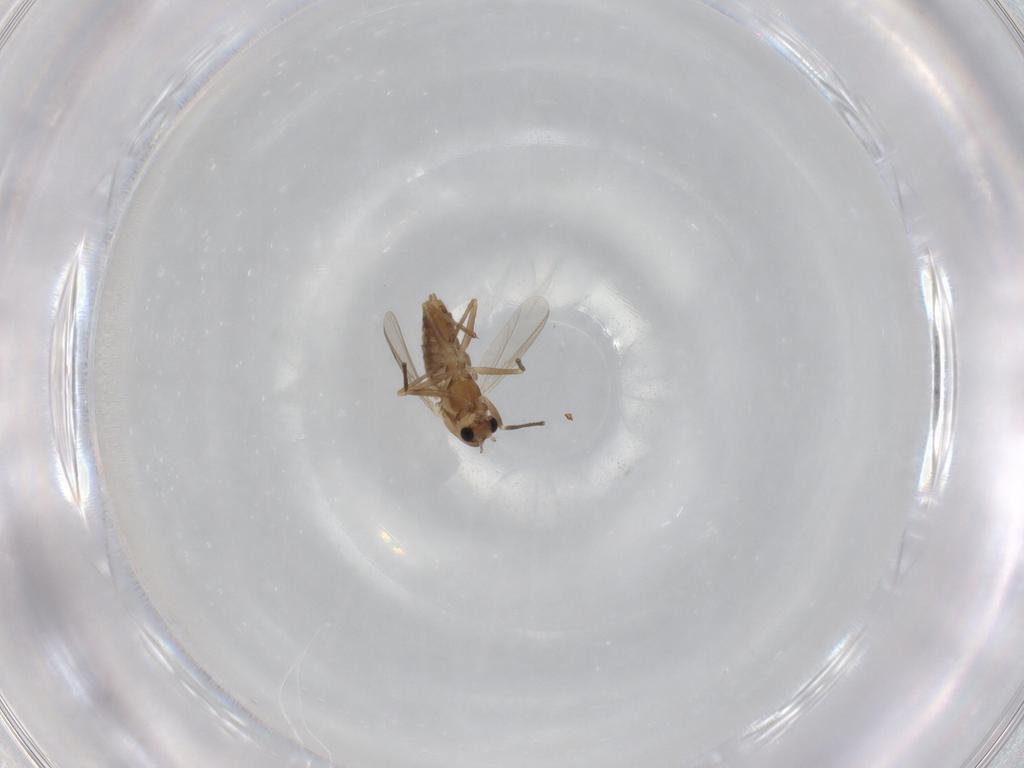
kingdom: Animalia
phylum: Arthropoda
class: Insecta
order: Diptera
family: Chironomidae
